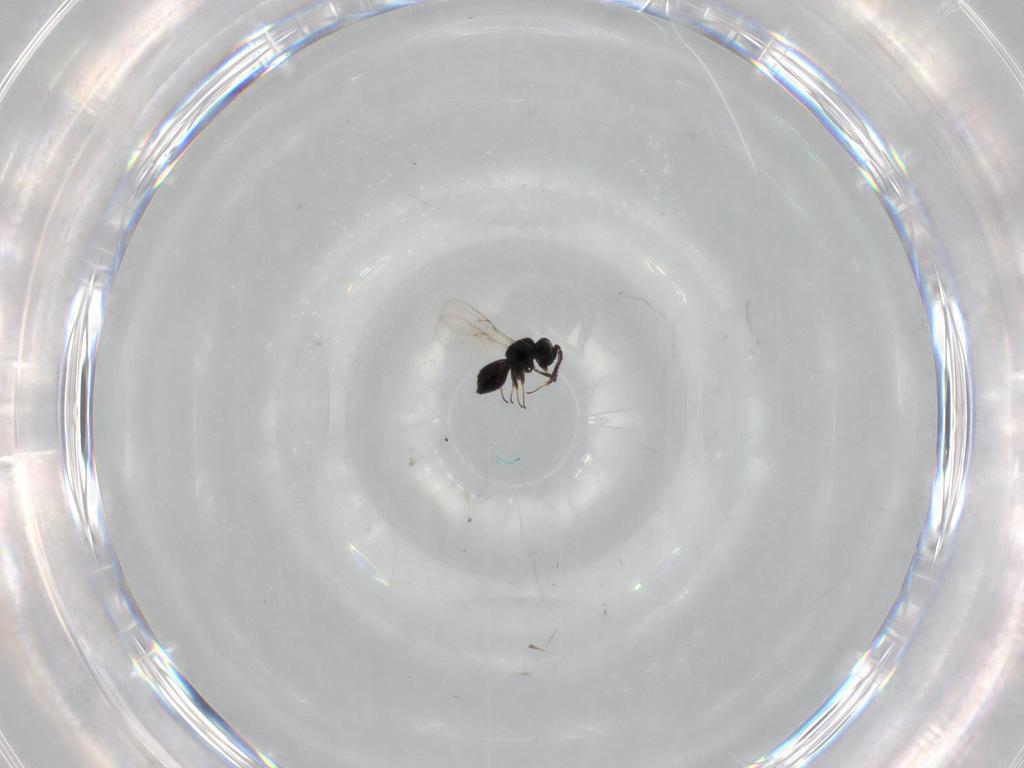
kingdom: Animalia
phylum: Arthropoda
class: Insecta
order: Hymenoptera
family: Scelionidae
